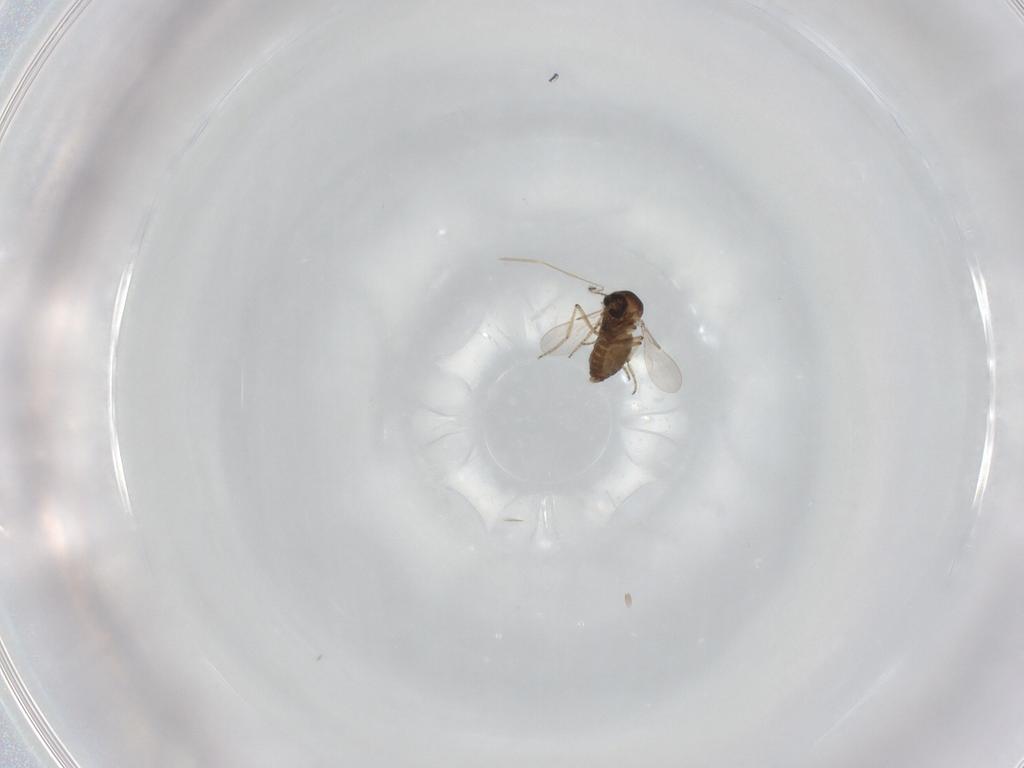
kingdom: Animalia
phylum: Arthropoda
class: Insecta
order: Diptera
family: Ceratopogonidae
